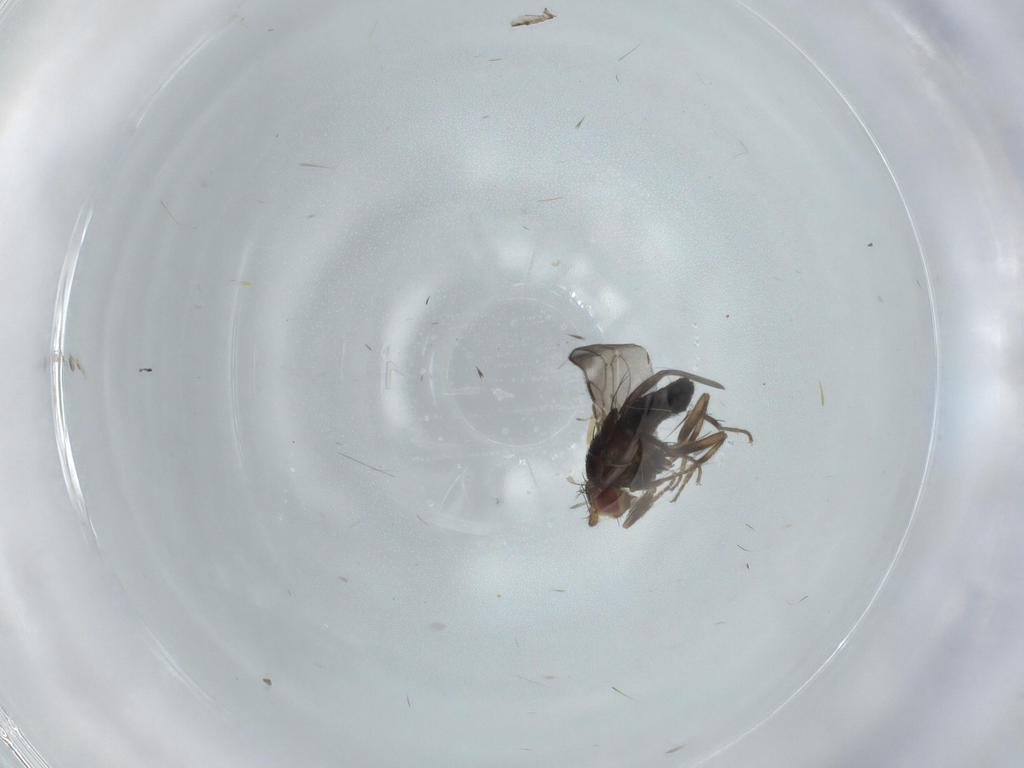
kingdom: Animalia
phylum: Arthropoda
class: Insecta
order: Diptera
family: Sphaeroceridae
